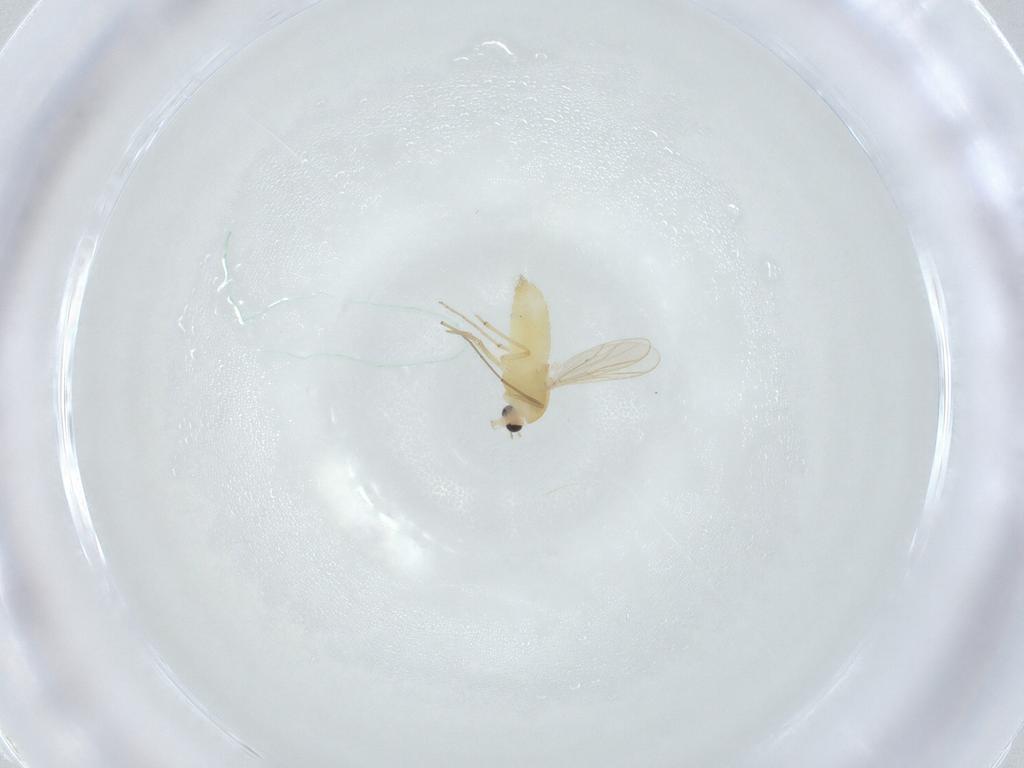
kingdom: Animalia
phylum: Arthropoda
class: Insecta
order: Diptera
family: Chironomidae
